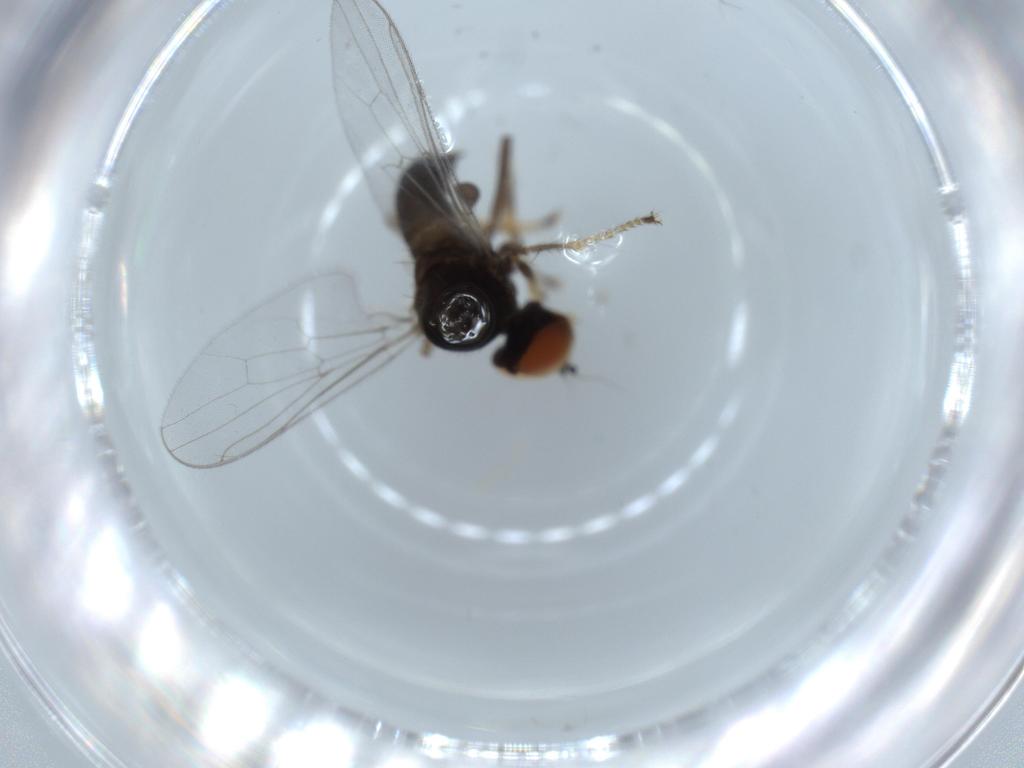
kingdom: Animalia
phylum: Arthropoda
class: Insecta
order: Diptera
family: Hybotidae
